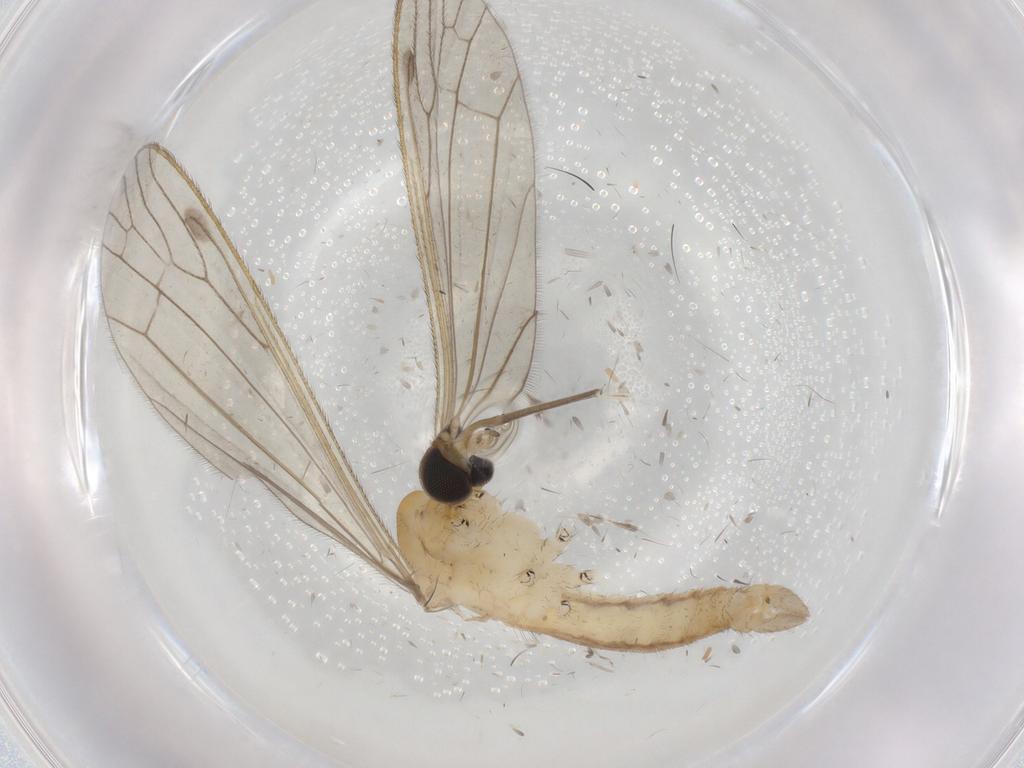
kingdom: Animalia
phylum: Arthropoda
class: Insecta
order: Diptera
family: Limoniidae
